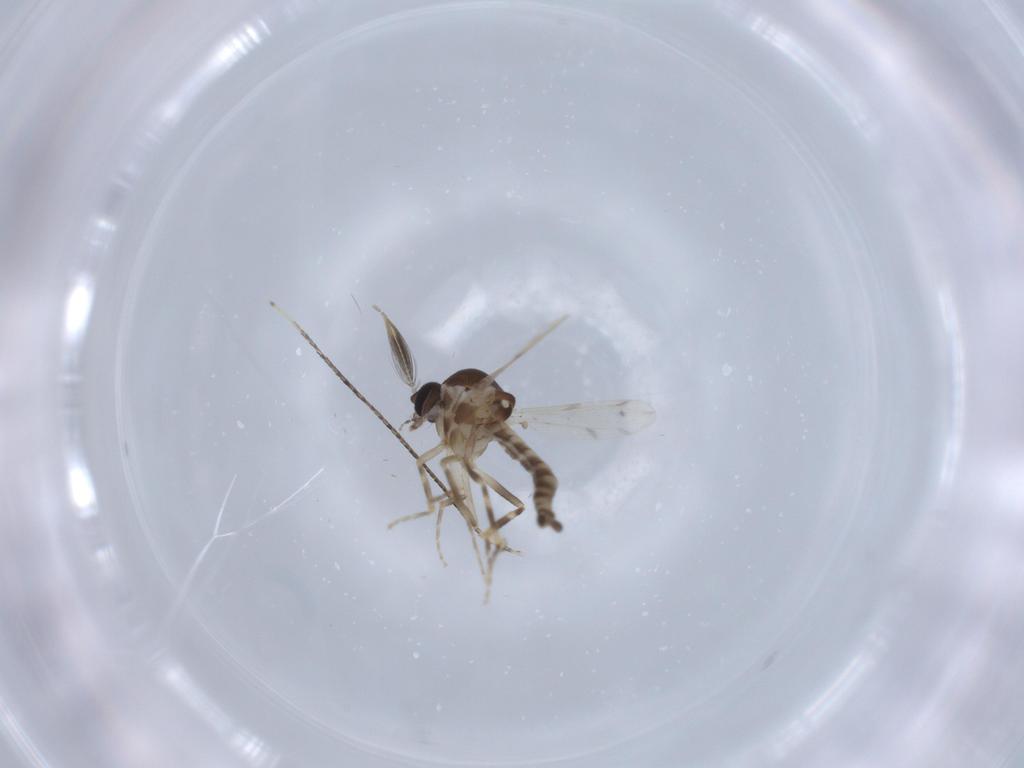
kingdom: Animalia
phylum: Arthropoda
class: Insecta
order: Diptera
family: Ceratopogonidae
